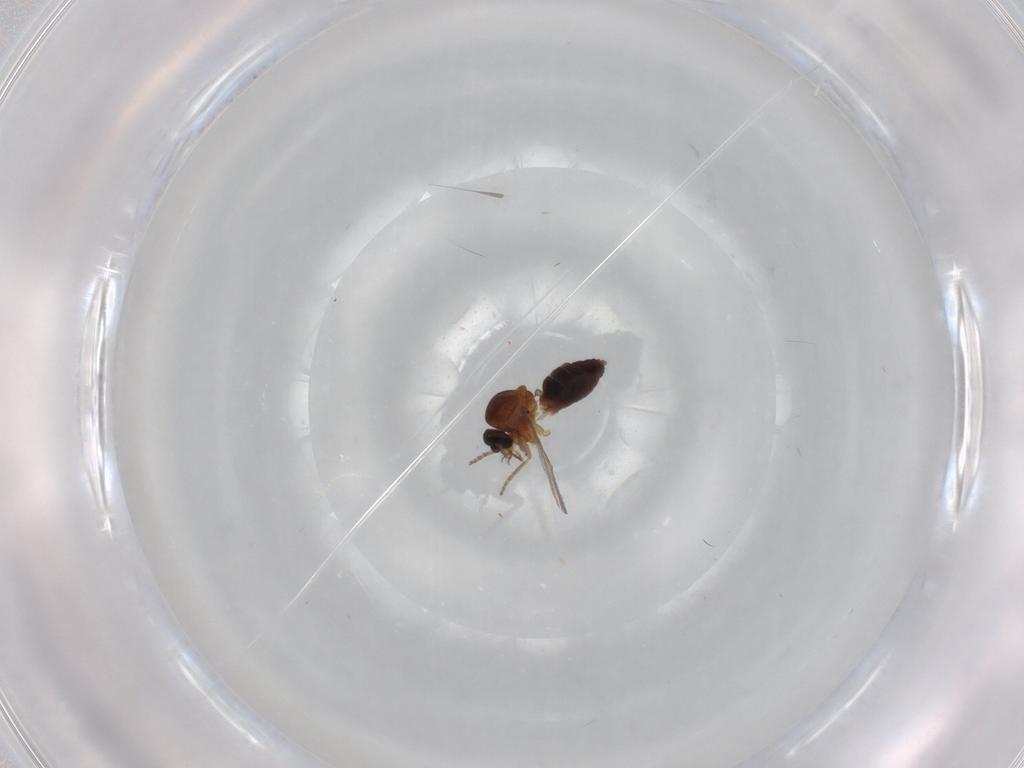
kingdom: Animalia
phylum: Arthropoda
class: Insecta
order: Diptera
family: Ceratopogonidae
